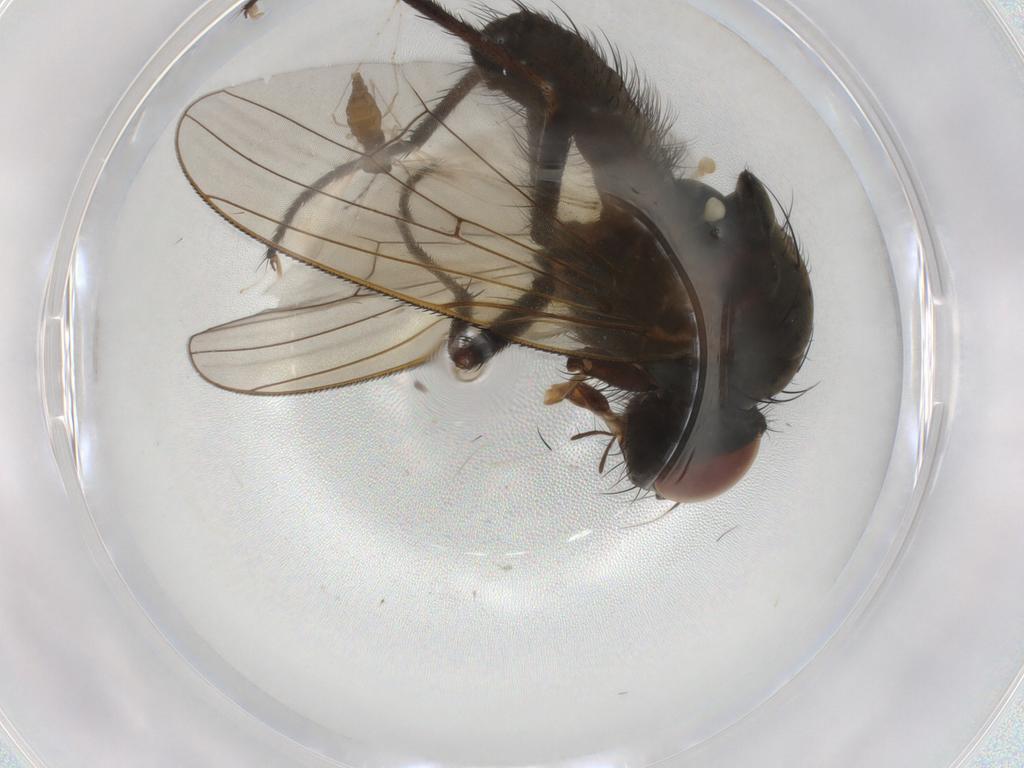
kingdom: Animalia
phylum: Arthropoda
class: Insecta
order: Diptera
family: Anthomyiidae
